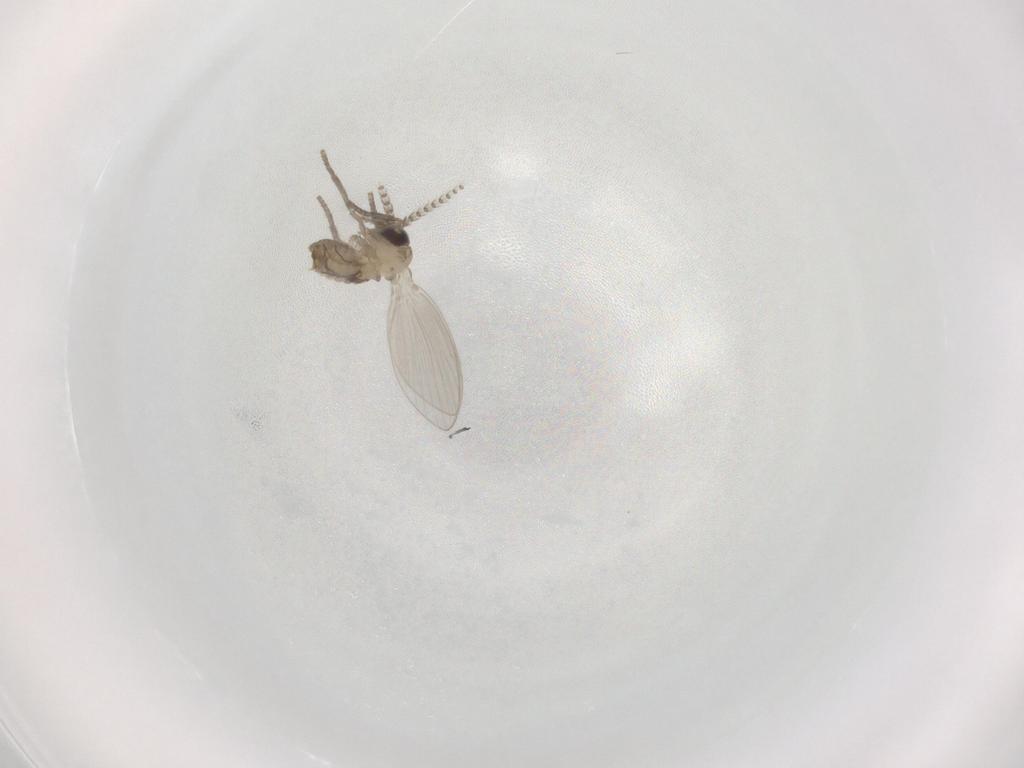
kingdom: Animalia
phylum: Arthropoda
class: Insecta
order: Diptera
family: Psychodidae
